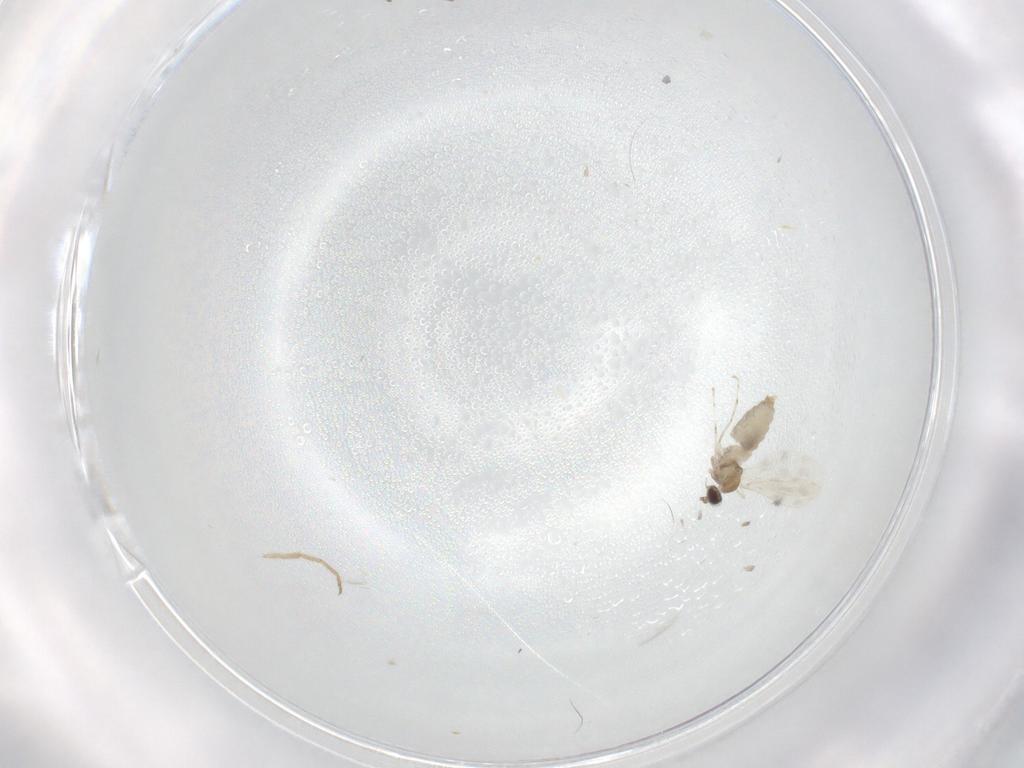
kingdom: Animalia
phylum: Arthropoda
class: Insecta
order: Diptera
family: Cecidomyiidae
